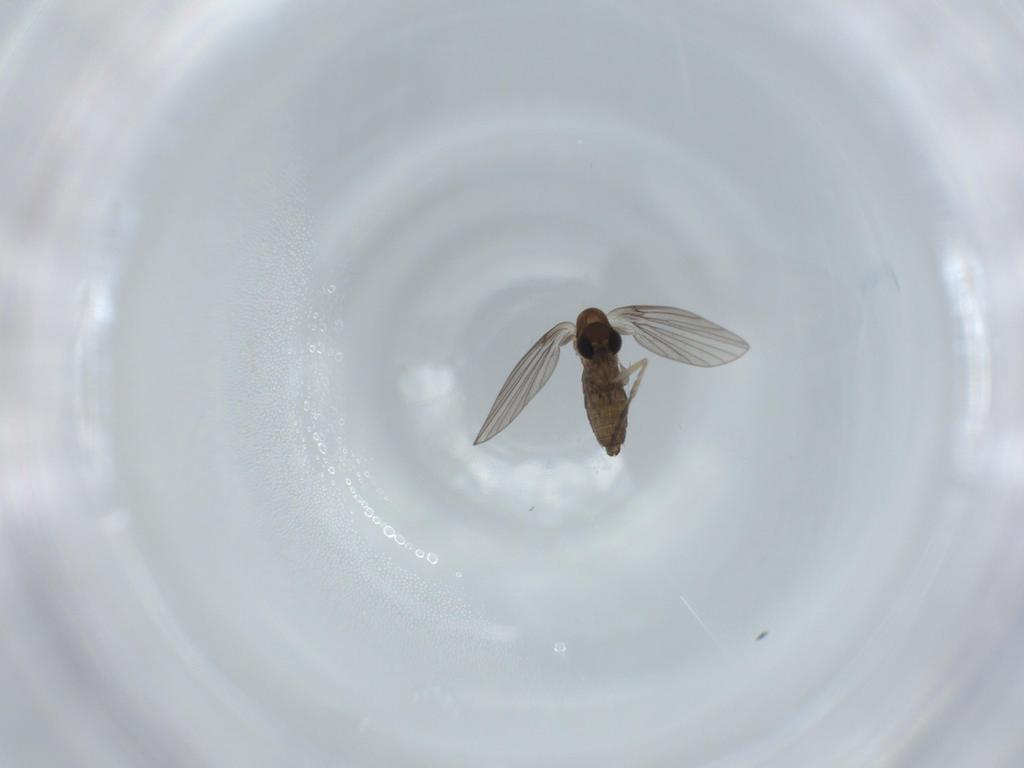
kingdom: Animalia
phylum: Arthropoda
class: Insecta
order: Diptera
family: Psychodidae
